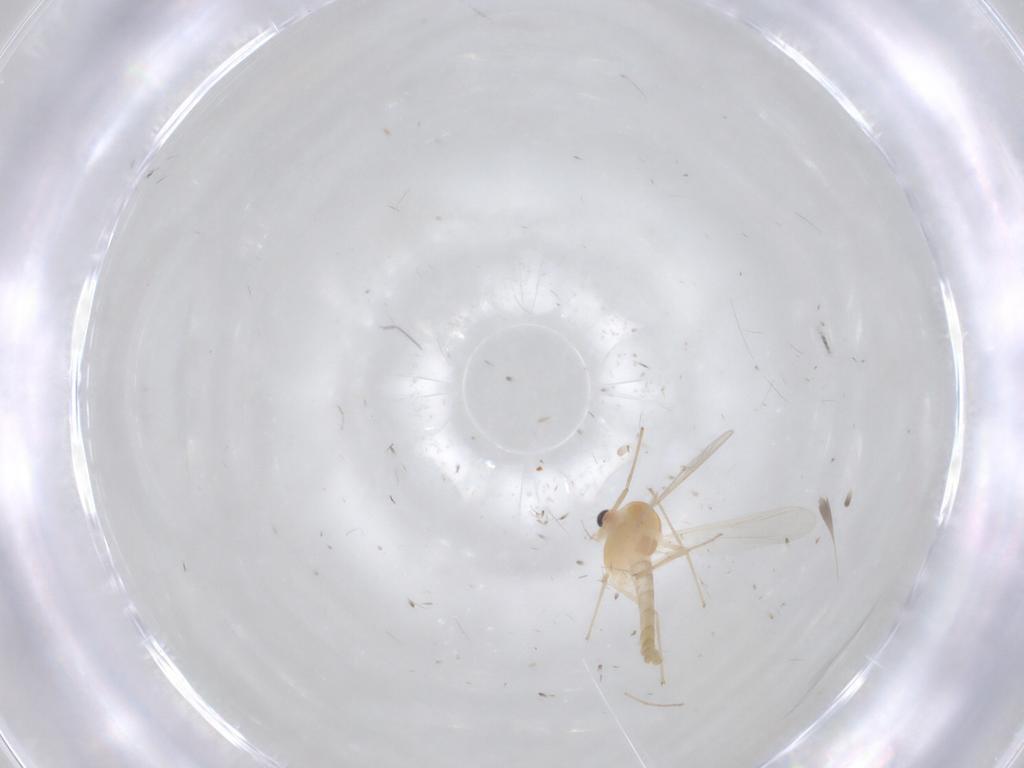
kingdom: Animalia
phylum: Arthropoda
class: Insecta
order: Diptera
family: Chironomidae
